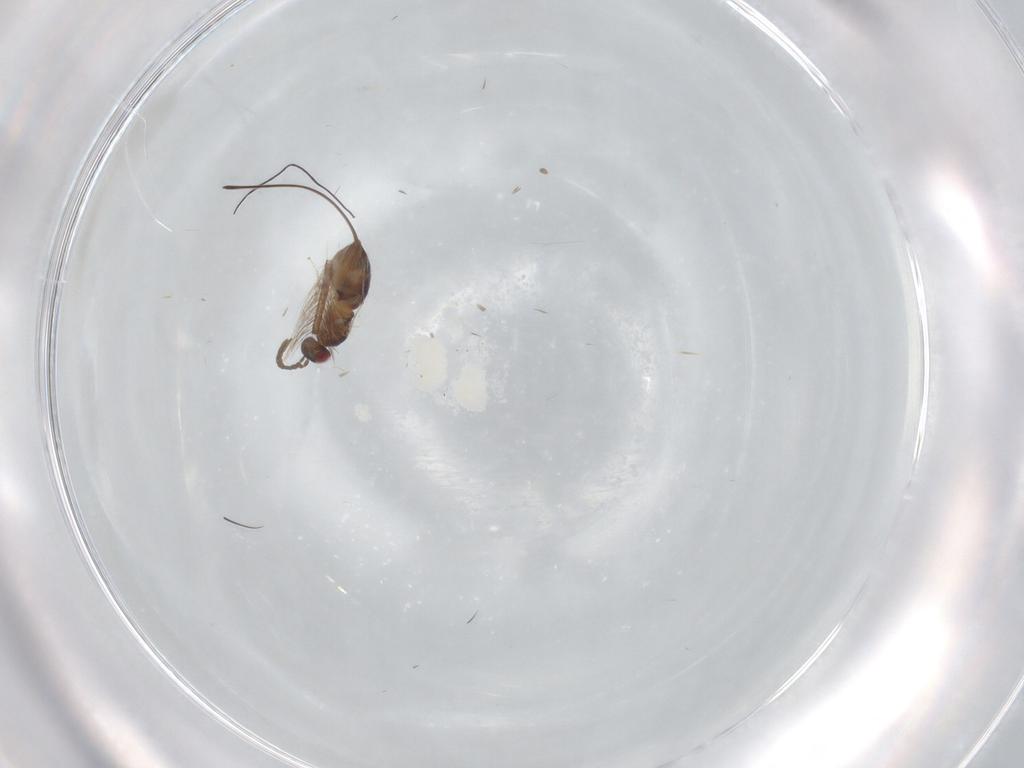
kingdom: Animalia
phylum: Arthropoda
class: Insecta
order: Hymenoptera
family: Pteromalidae
